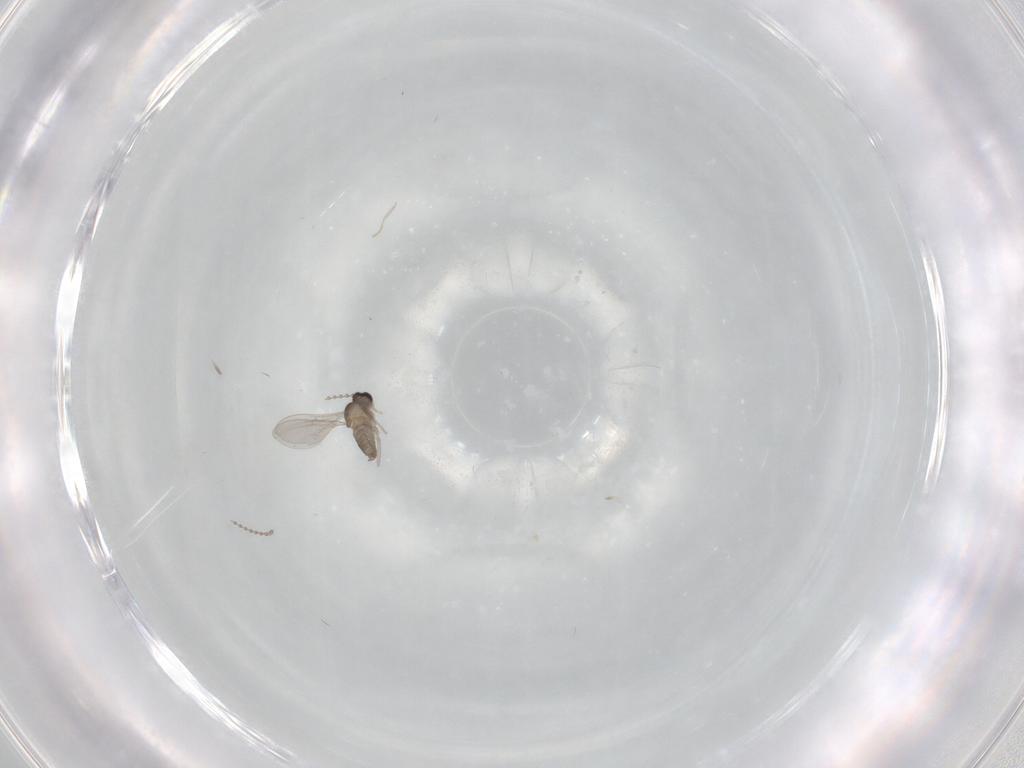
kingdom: Animalia
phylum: Arthropoda
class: Insecta
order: Diptera
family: Cecidomyiidae
